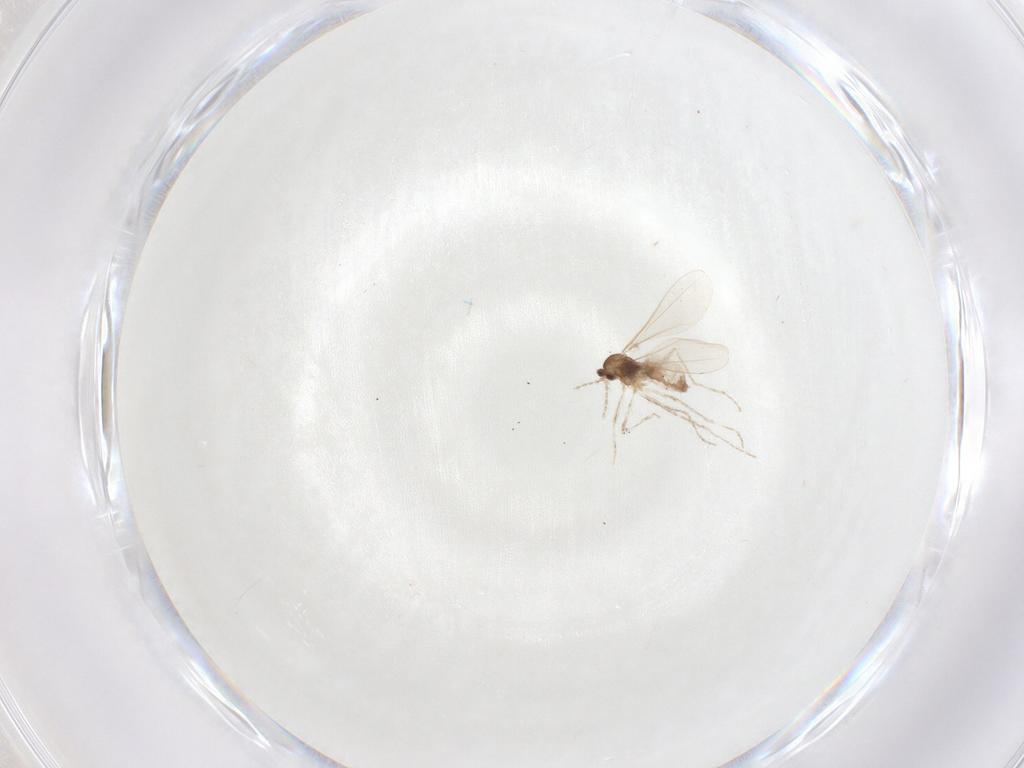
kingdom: Animalia
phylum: Arthropoda
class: Insecta
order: Diptera
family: Cecidomyiidae
